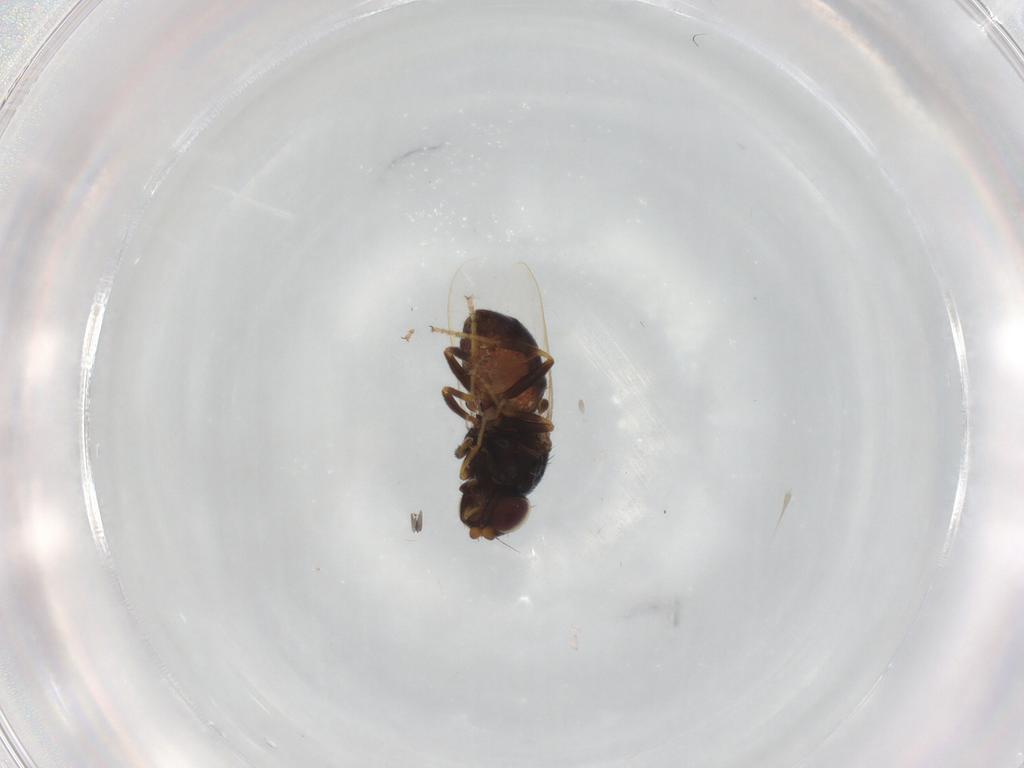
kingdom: Animalia
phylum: Arthropoda
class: Insecta
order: Diptera
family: Chloropidae
